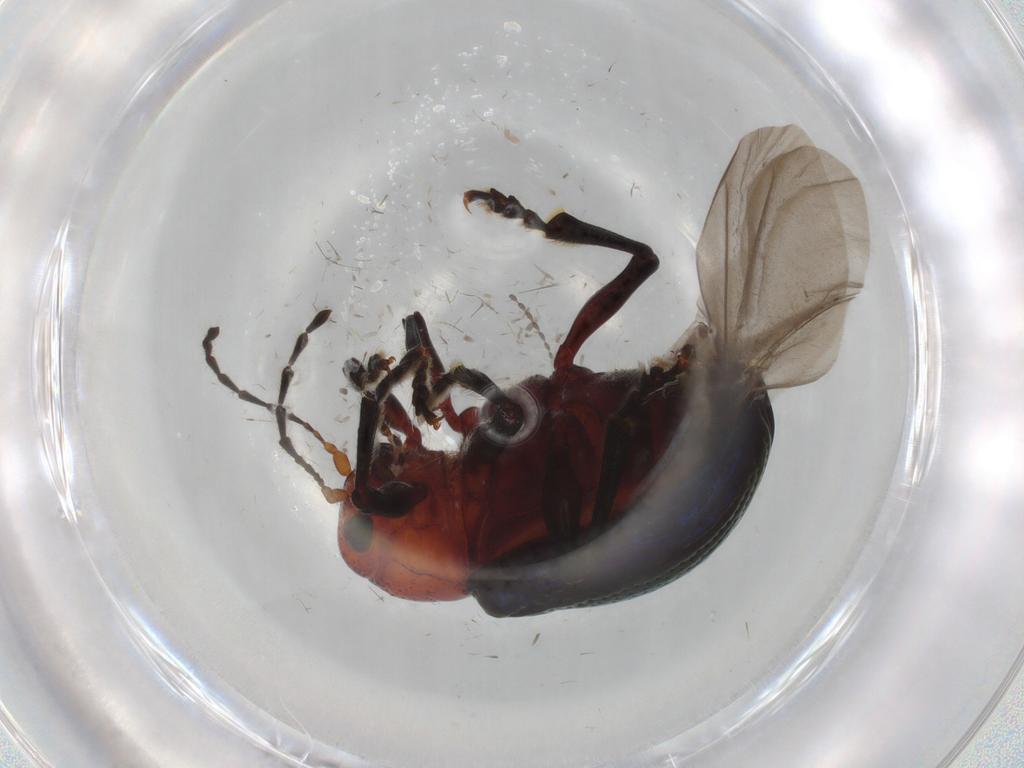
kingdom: Animalia
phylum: Arthropoda
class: Insecta
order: Coleoptera
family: Chrysomelidae
